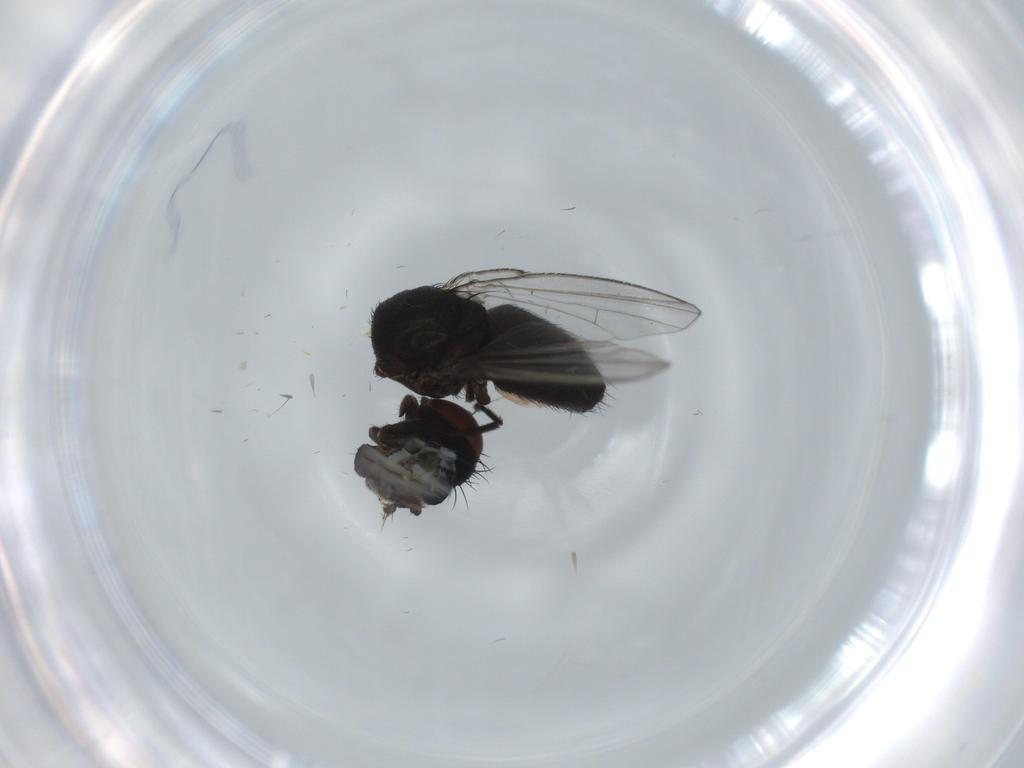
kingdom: Animalia
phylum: Arthropoda
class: Insecta
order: Diptera
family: Milichiidae
